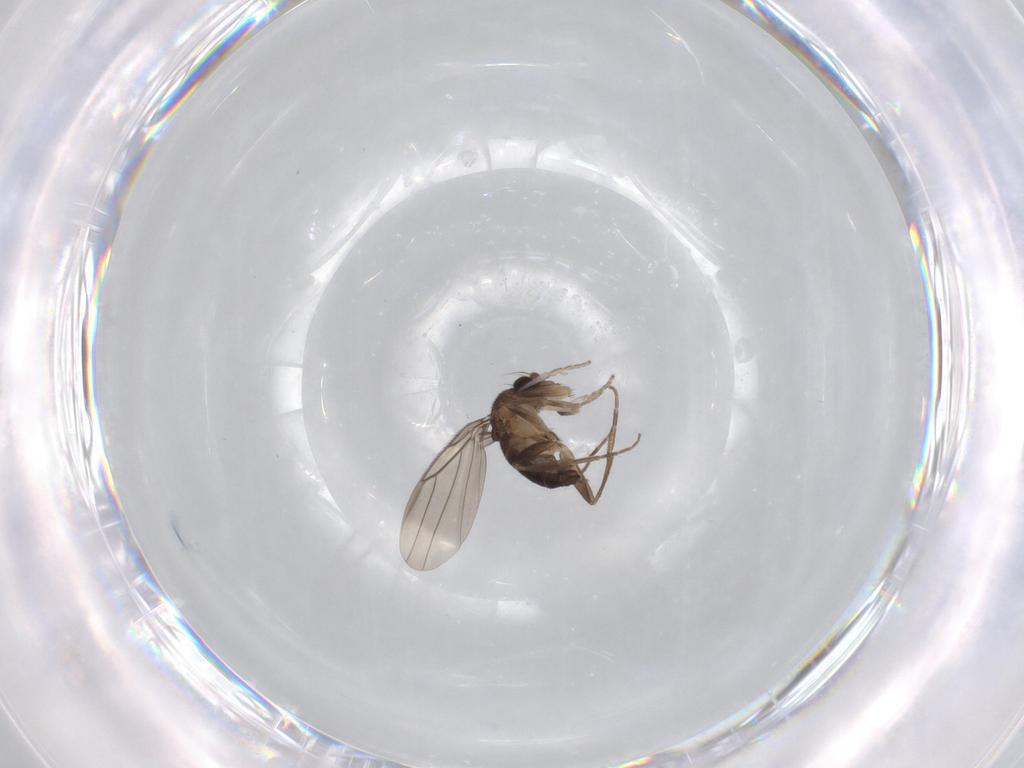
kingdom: Animalia
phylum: Arthropoda
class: Insecta
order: Diptera
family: Phoridae
